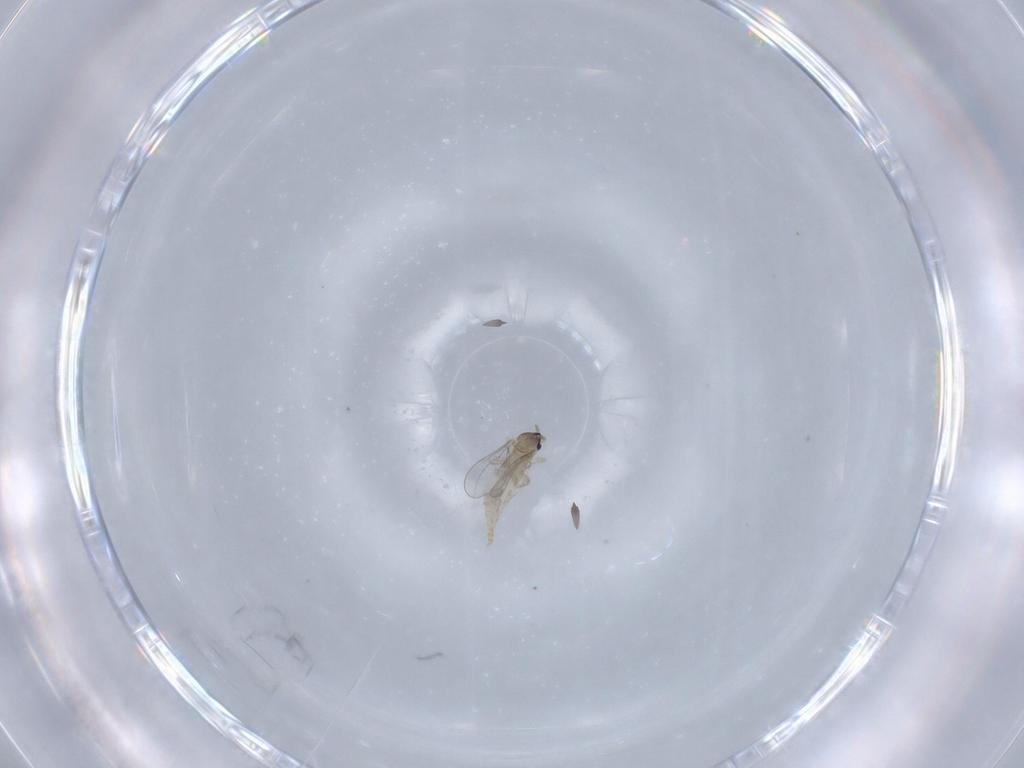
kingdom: Animalia
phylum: Arthropoda
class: Insecta
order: Diptera
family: Cecidomyiidae
